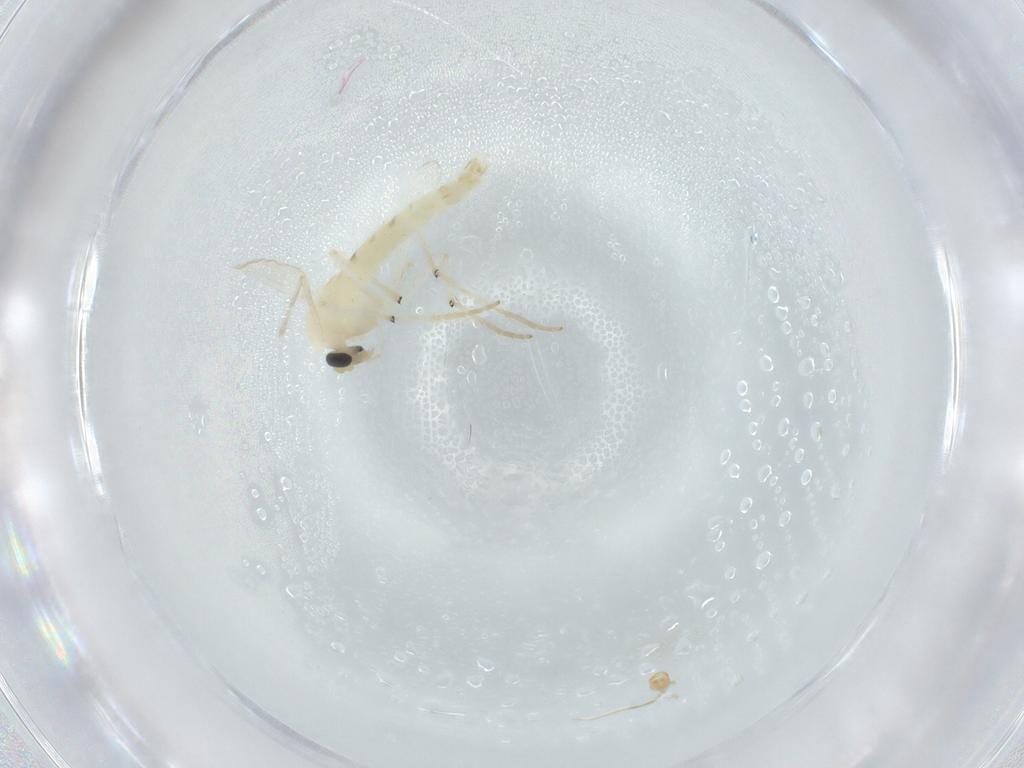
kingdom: Animalia
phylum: Arthropoda
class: Insecta
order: Diptera
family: Chironomidae
